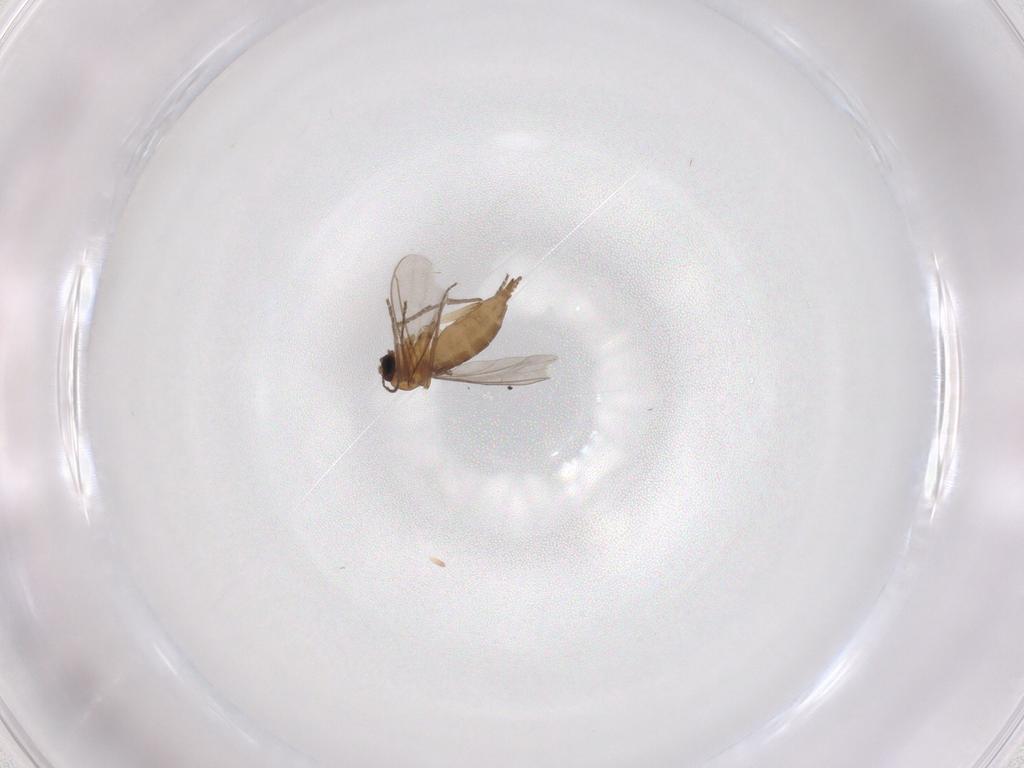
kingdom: Animalia
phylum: Arthropoda
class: Insecta
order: Diptera
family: Sciaridae
